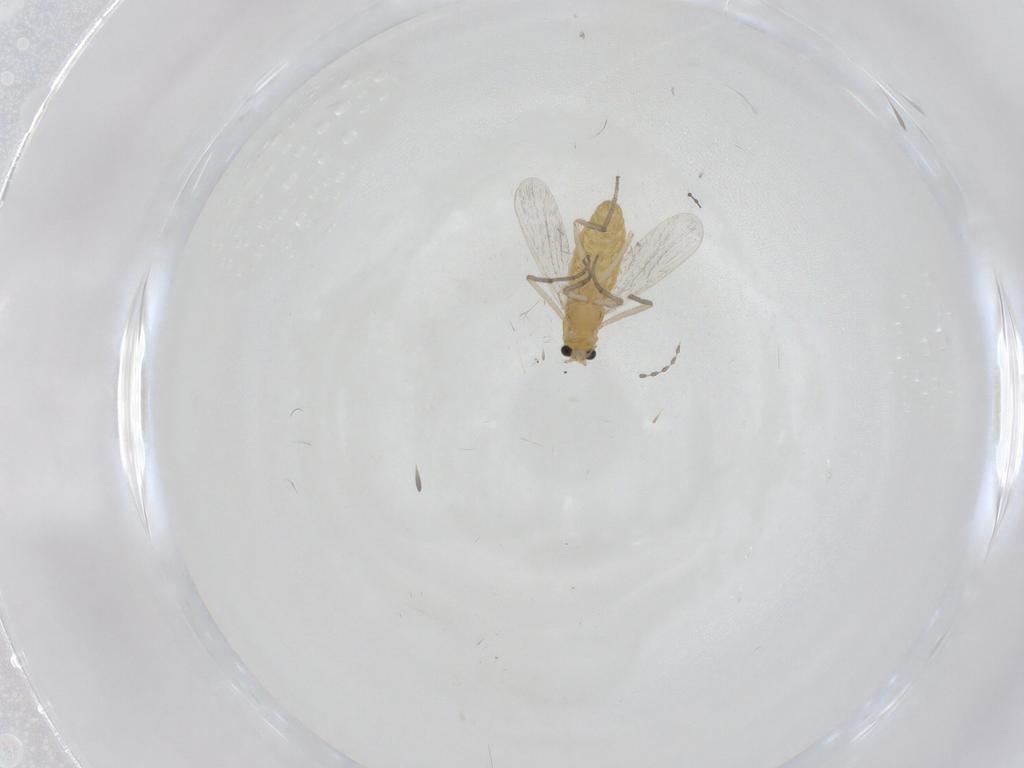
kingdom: Animalia
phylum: Arthropoda
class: Insecta
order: Diptera
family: Chironomidae
